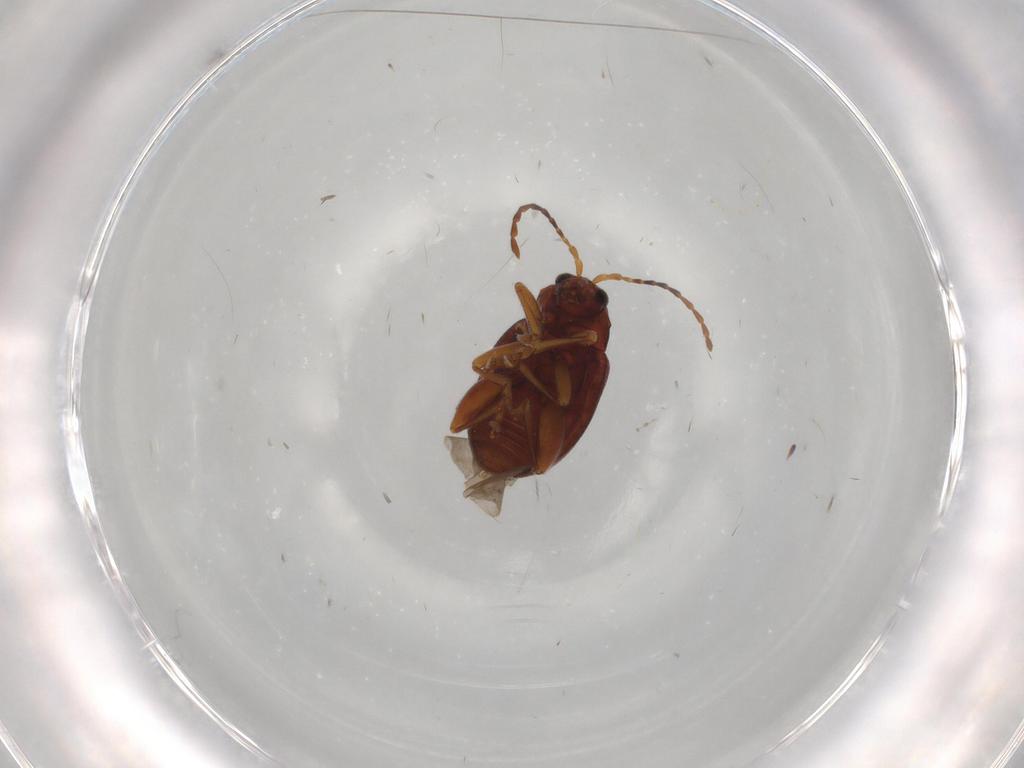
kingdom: Animalia
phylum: Arthropoda
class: Insecta
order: Coleoptera
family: Chrysomelidae
